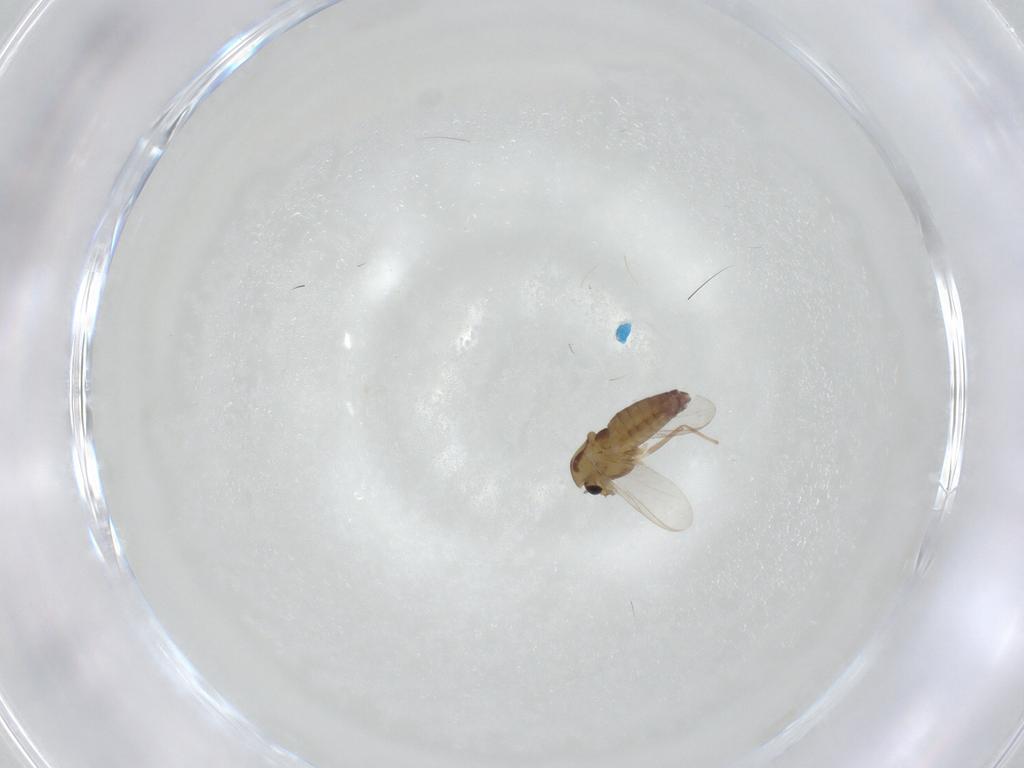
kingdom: Animalia
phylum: Arthropoda
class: Insecta
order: Diptera
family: Chironomidae
